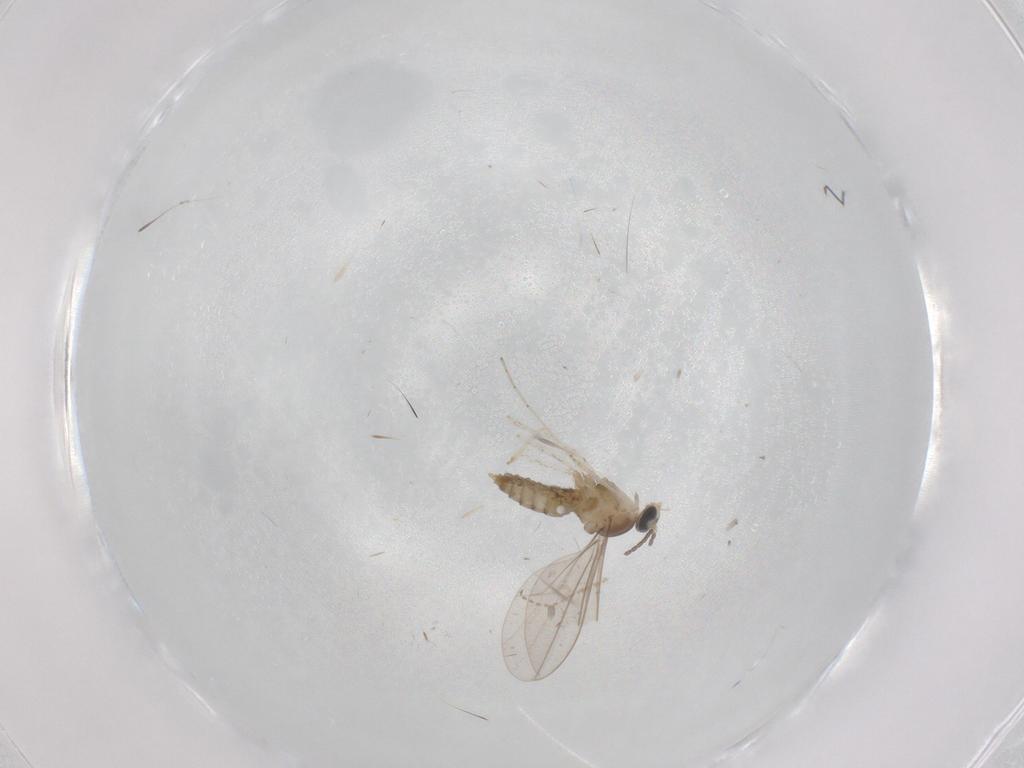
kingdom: Animalia
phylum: Arthropoda
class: Insecta
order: Diptera
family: Cecidomyiidae
